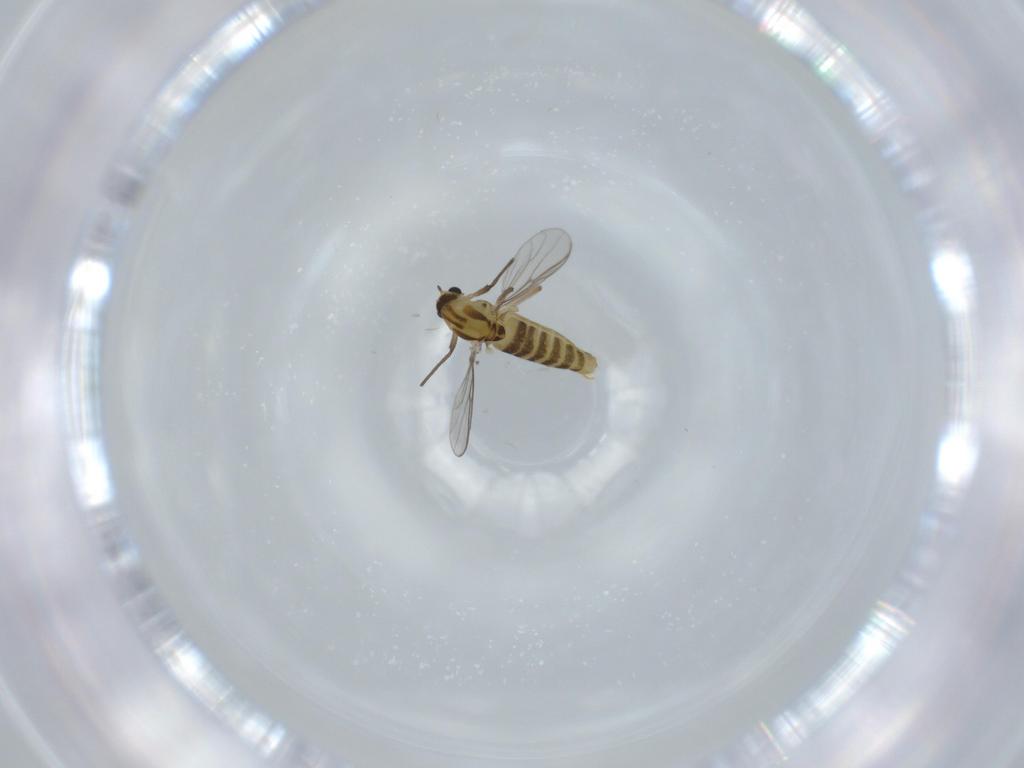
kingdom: Animalia
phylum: Arthropoda
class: Insecta
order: Diptera
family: Chironomidae
